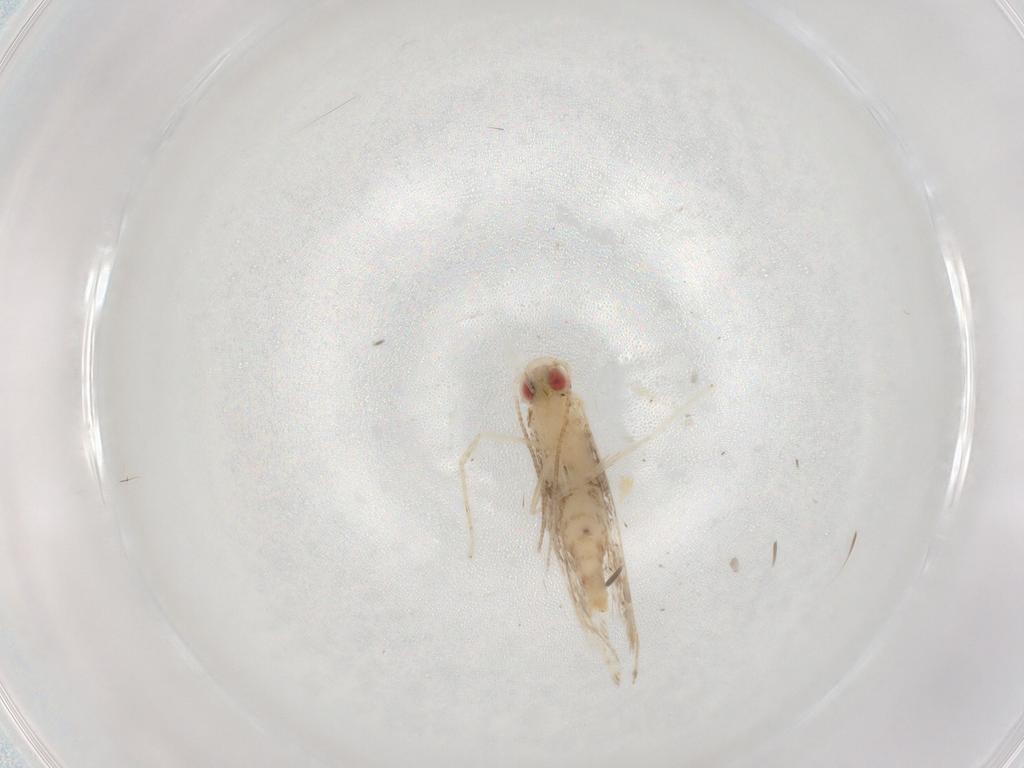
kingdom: Animalia
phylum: Arthropoda
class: Insecta
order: Lepidoptera
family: Gracillariidae
